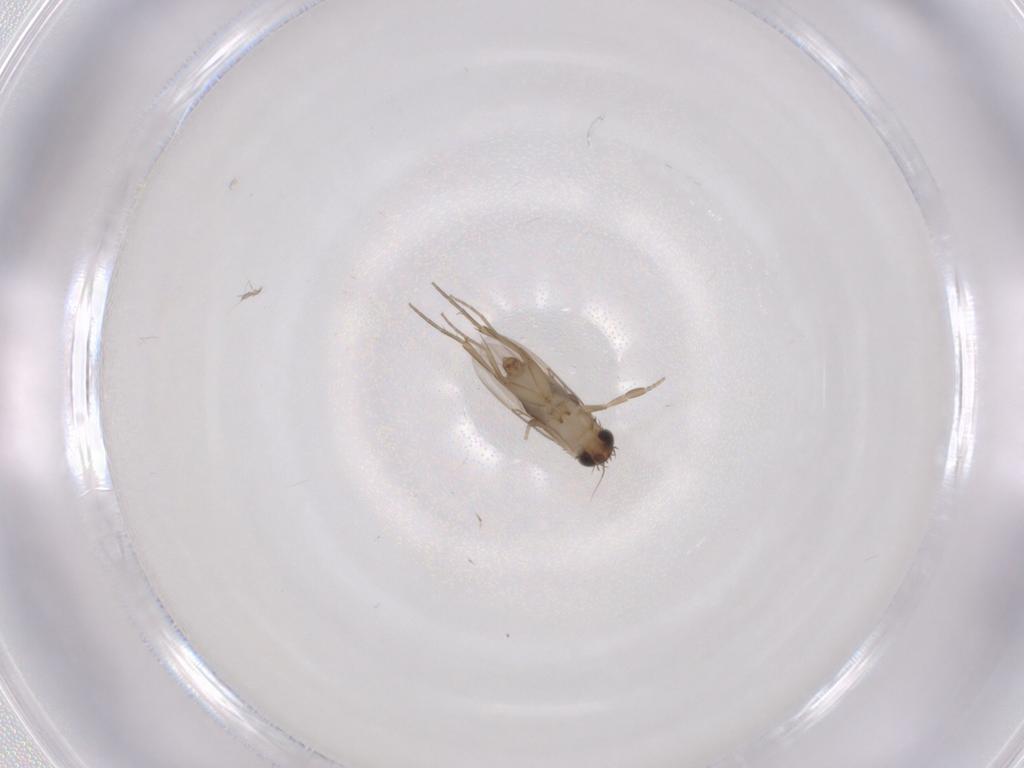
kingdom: Animalia
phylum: Arthropoda
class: Insecta
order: Diptera
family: Phoridae
